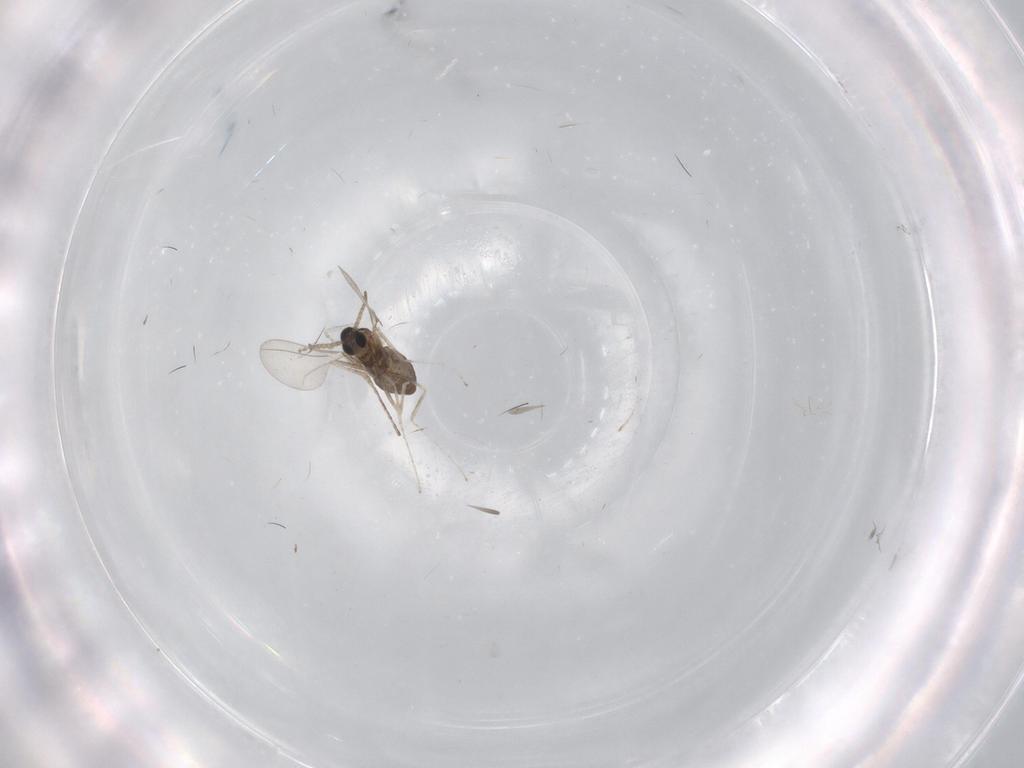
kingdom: Animalia
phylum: Arthropoda
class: Insecta
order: Diptera
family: Cecidomyiidae
